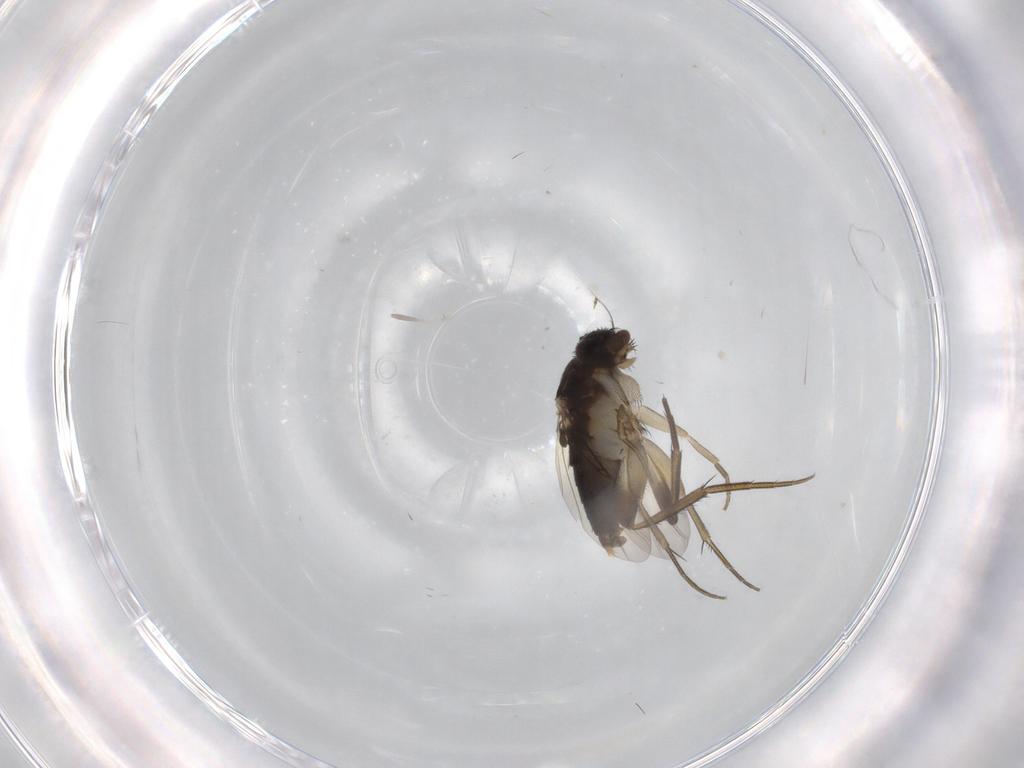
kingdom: Animalia
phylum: Arthropoda
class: Insecta
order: Diptera
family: Phoridae
